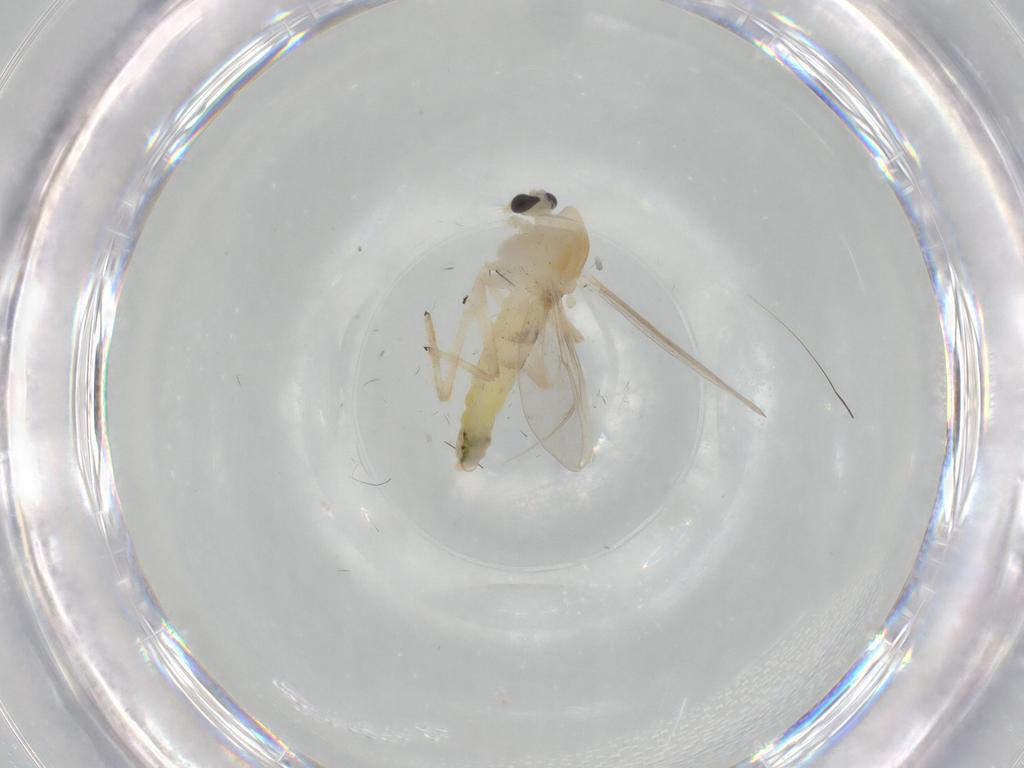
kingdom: Animalia
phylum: Arthropoda
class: Insecta
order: Diptera
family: Chironomidae
